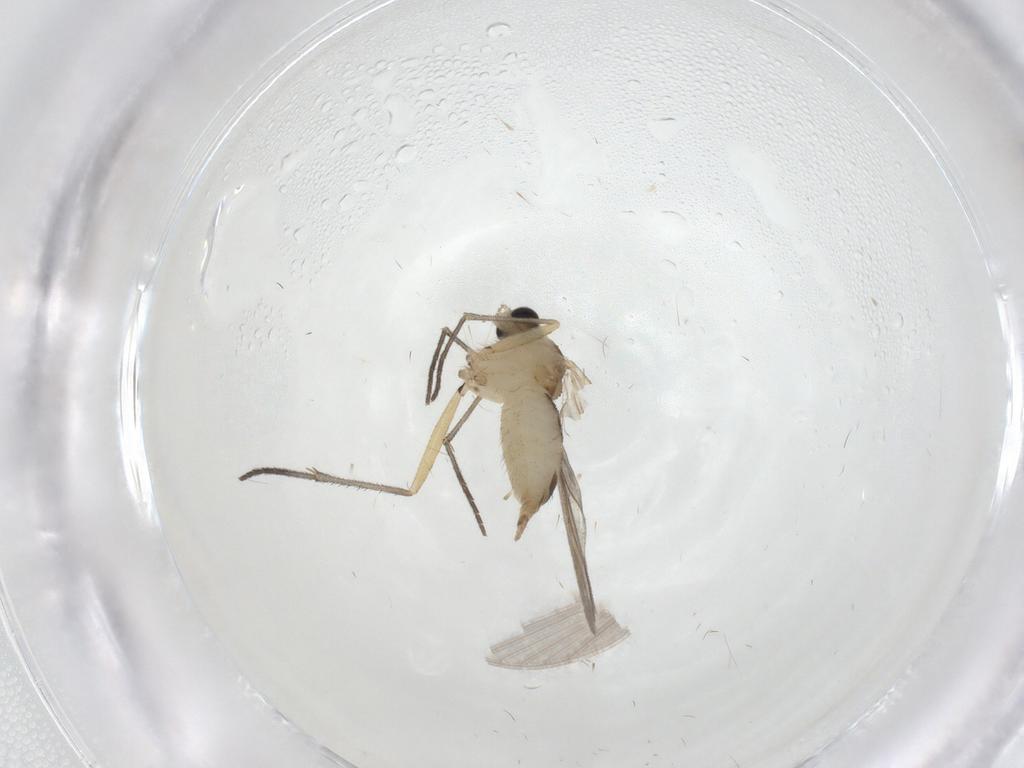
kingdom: Animalia
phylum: Arthropoda
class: Insecta
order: Diptera
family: Sciaridae
